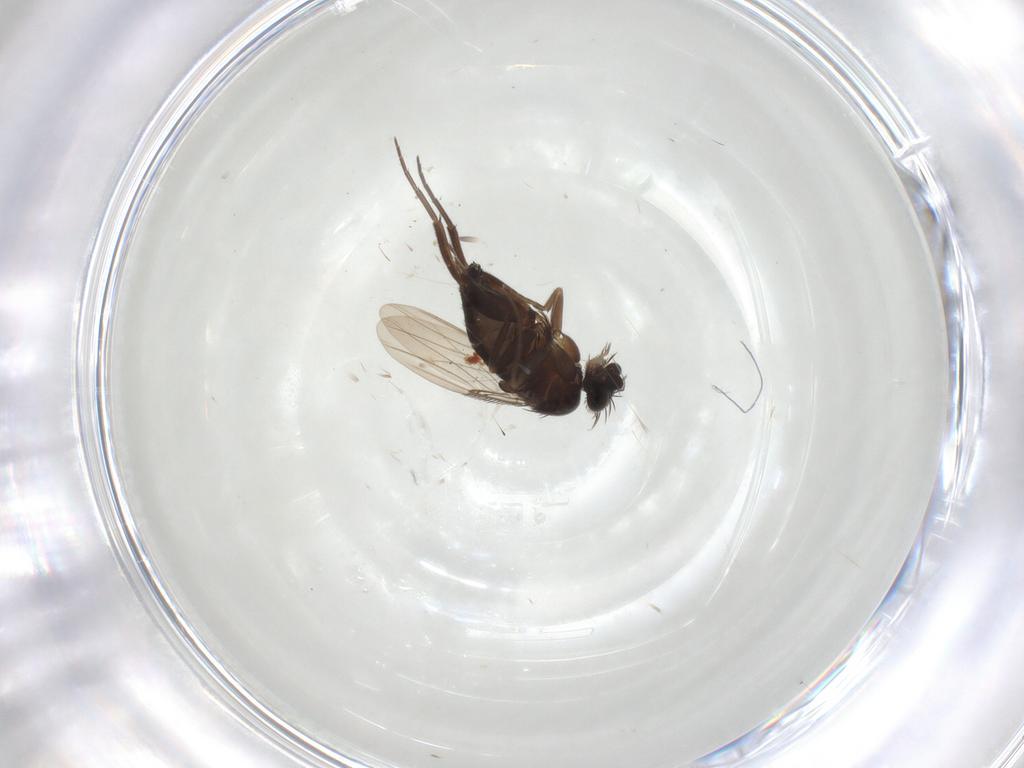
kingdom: Animalia
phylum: Arthropoda
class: Insecta
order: Diptera
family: Phoridae
